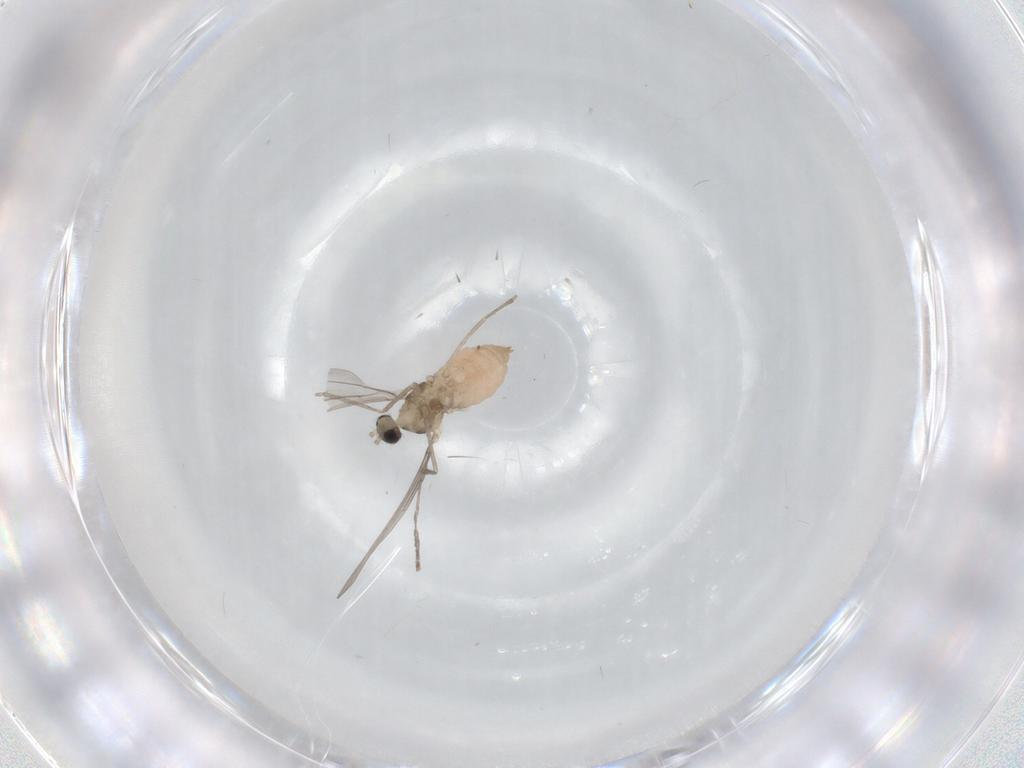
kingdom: Animalia
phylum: Arthropoda
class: Insecta
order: Diptera
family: Cecidomyiidae
